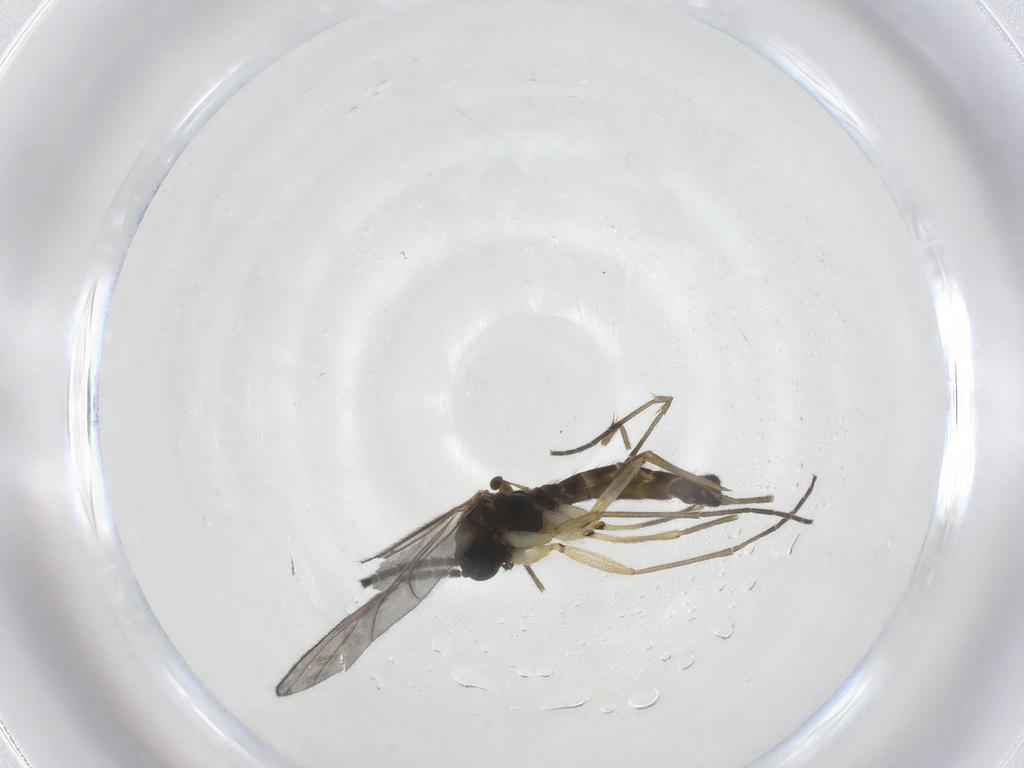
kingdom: Animalia
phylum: Arthropoda
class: Insecta
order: Diptera
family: Sciaridae
